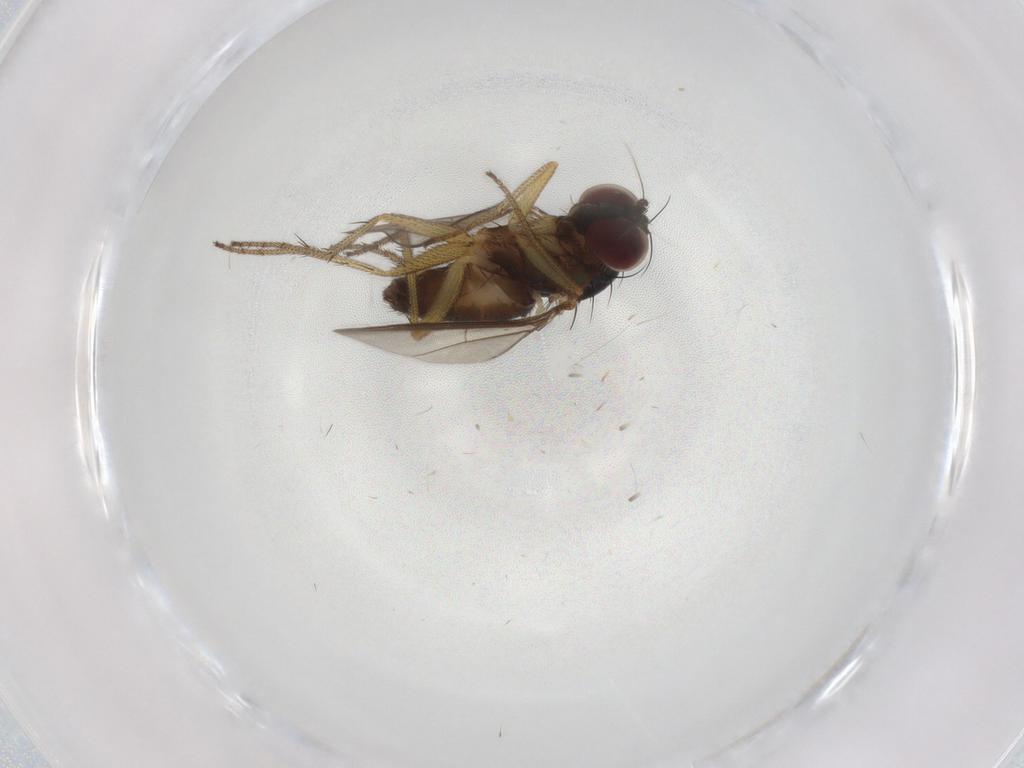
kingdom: Animalia
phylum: Arthropoda
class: Insecta
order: Diptera
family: Dolichopodidae
